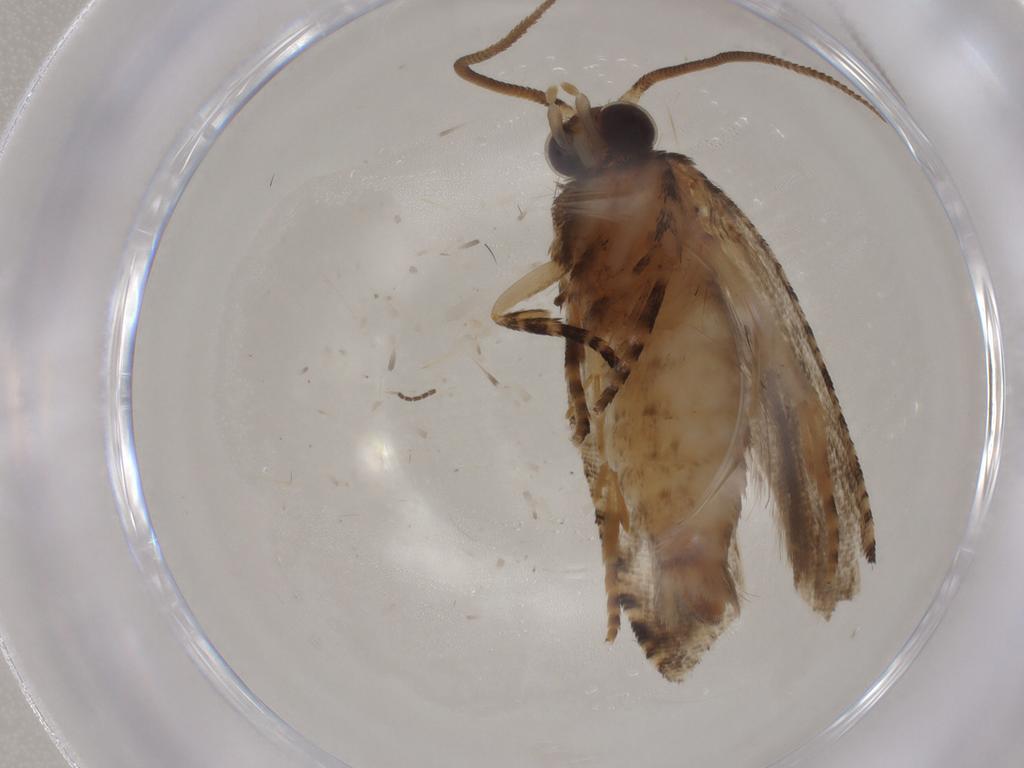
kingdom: Animalia
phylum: Arthropoda
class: Insecta
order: Lepidoptera
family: Tortricidae
